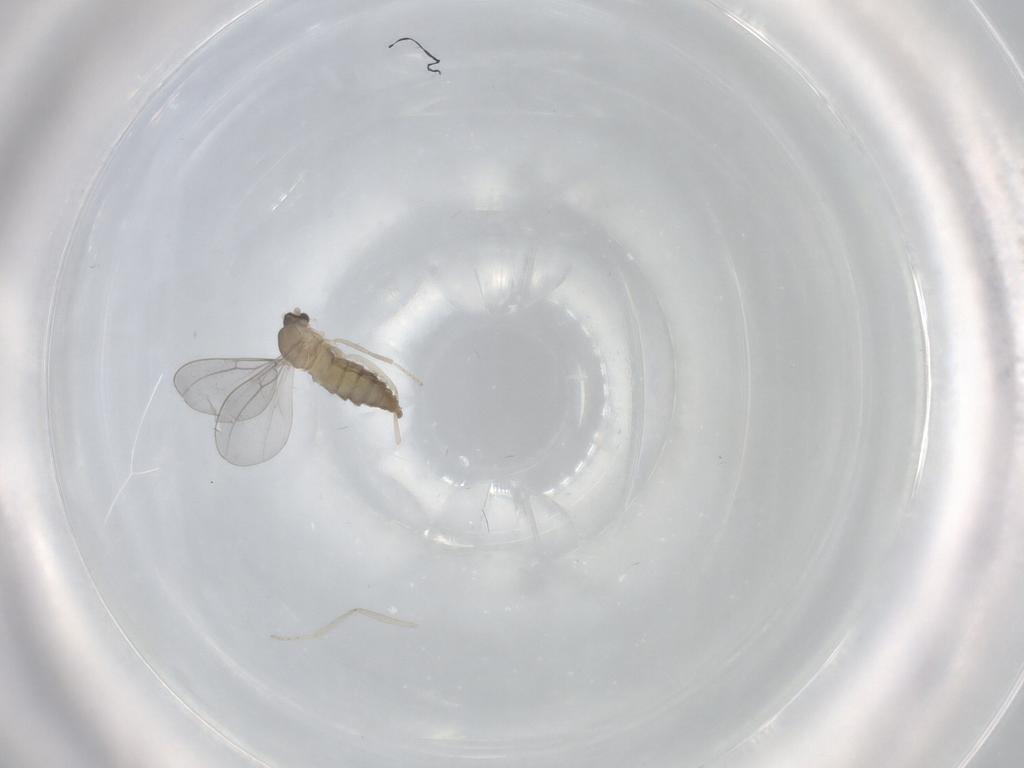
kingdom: Animalia
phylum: Arthropoda
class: Insecta
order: Diptera
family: Cecidomyiidae
